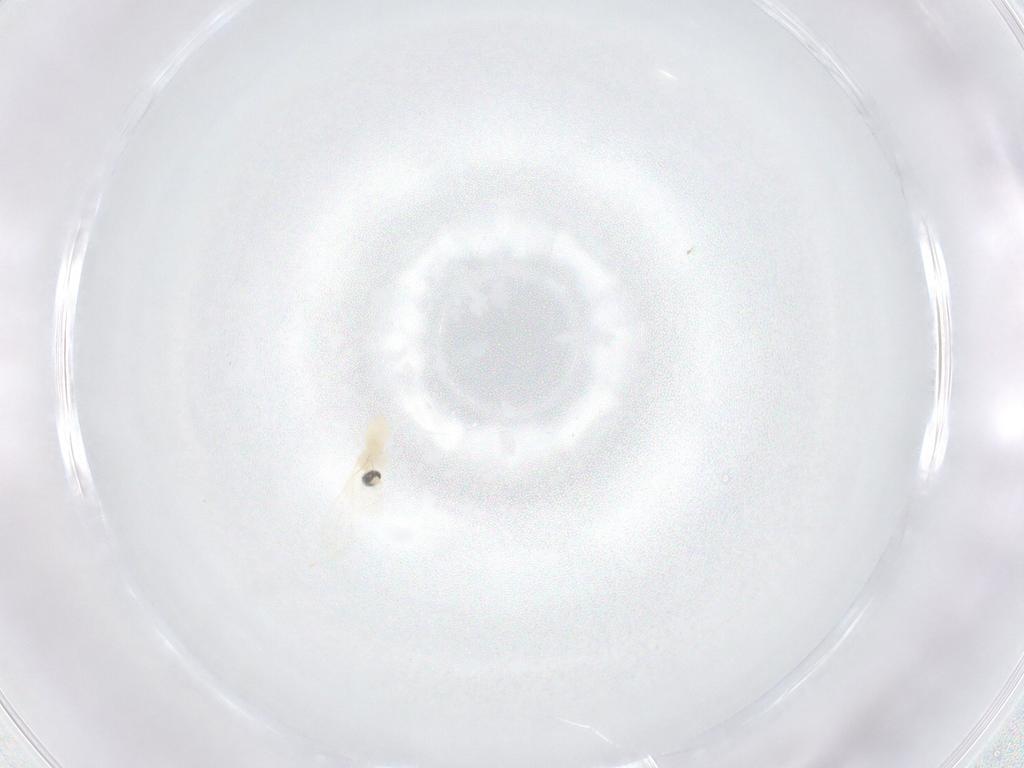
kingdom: Animalia
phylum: Arthropoda
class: Insecta
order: Diptera
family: Cecidomyiidae
